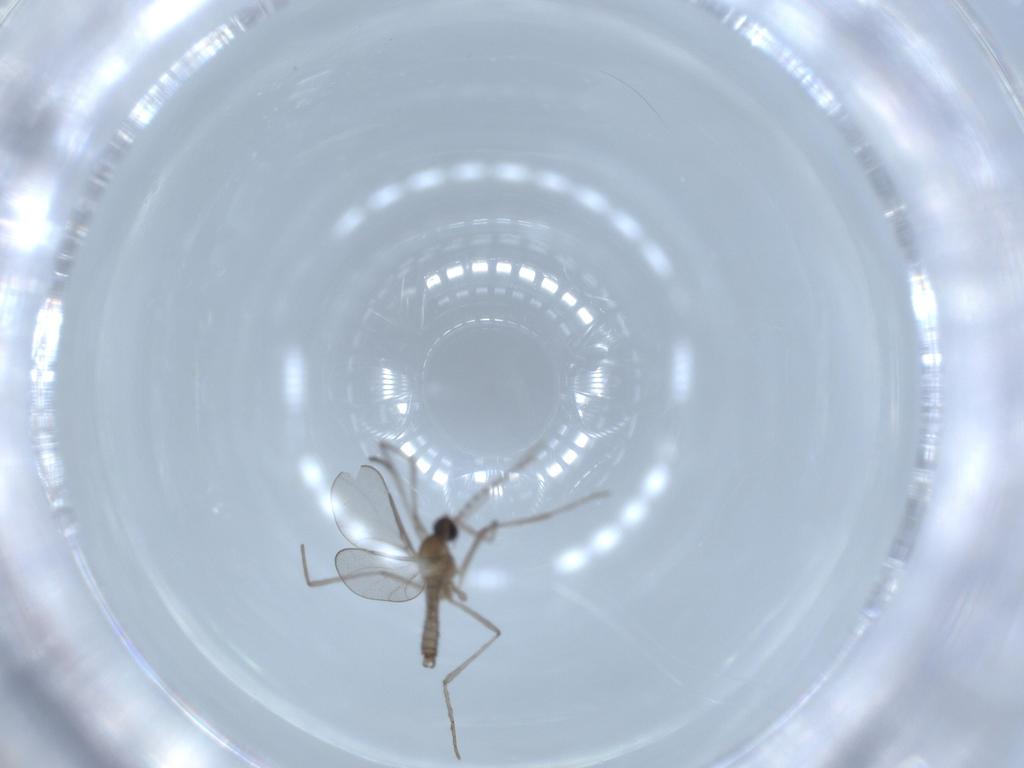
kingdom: Animalia
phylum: Arthropoda
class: Insecta
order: Diptera
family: Cecidomyiidae
